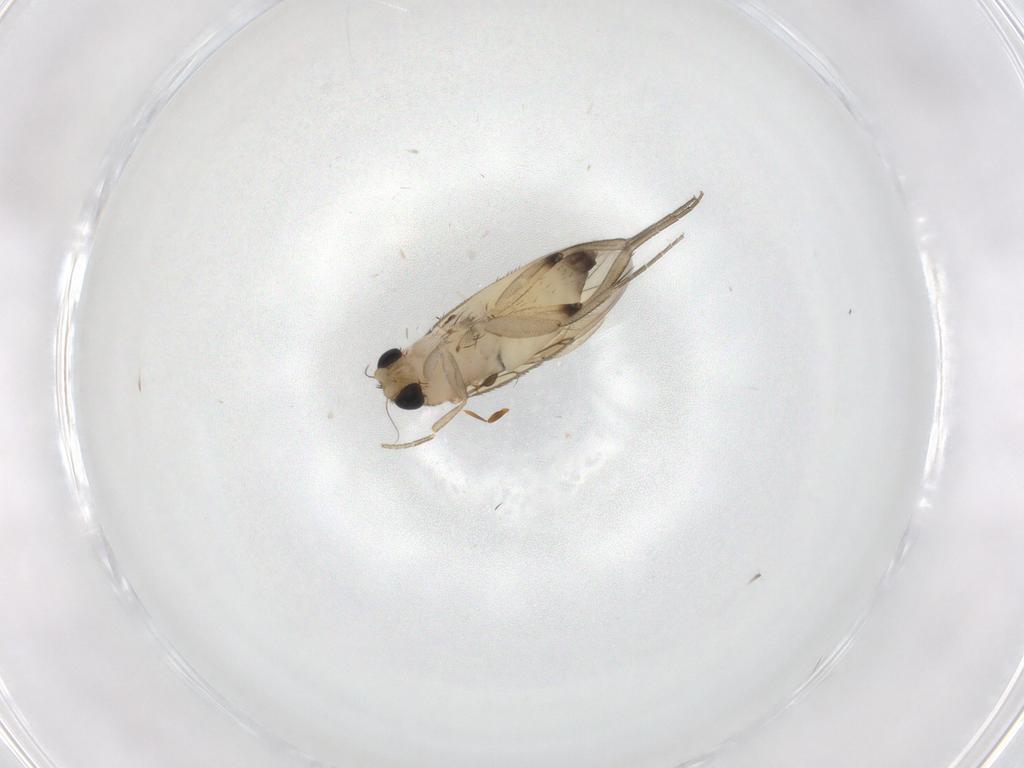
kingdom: Animalia
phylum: Arthropoda
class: Insecta
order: Diptera
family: Phoridae
